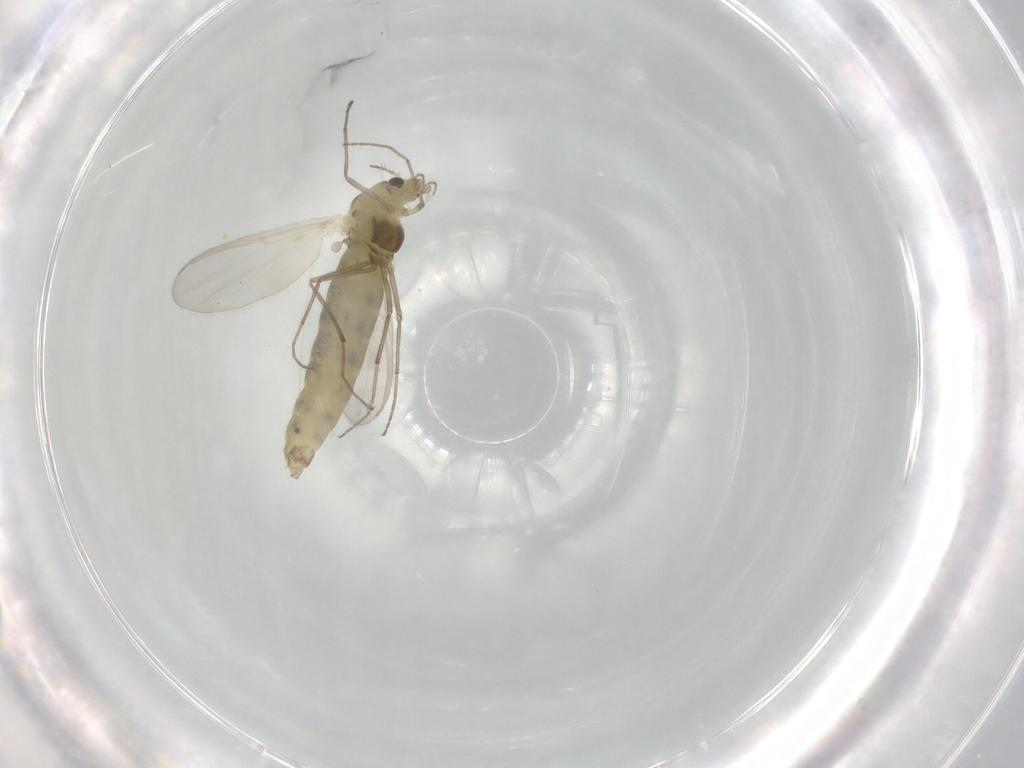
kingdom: Animalia
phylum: Arthropoda
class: Insecta
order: Diptera
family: Chironomidae
